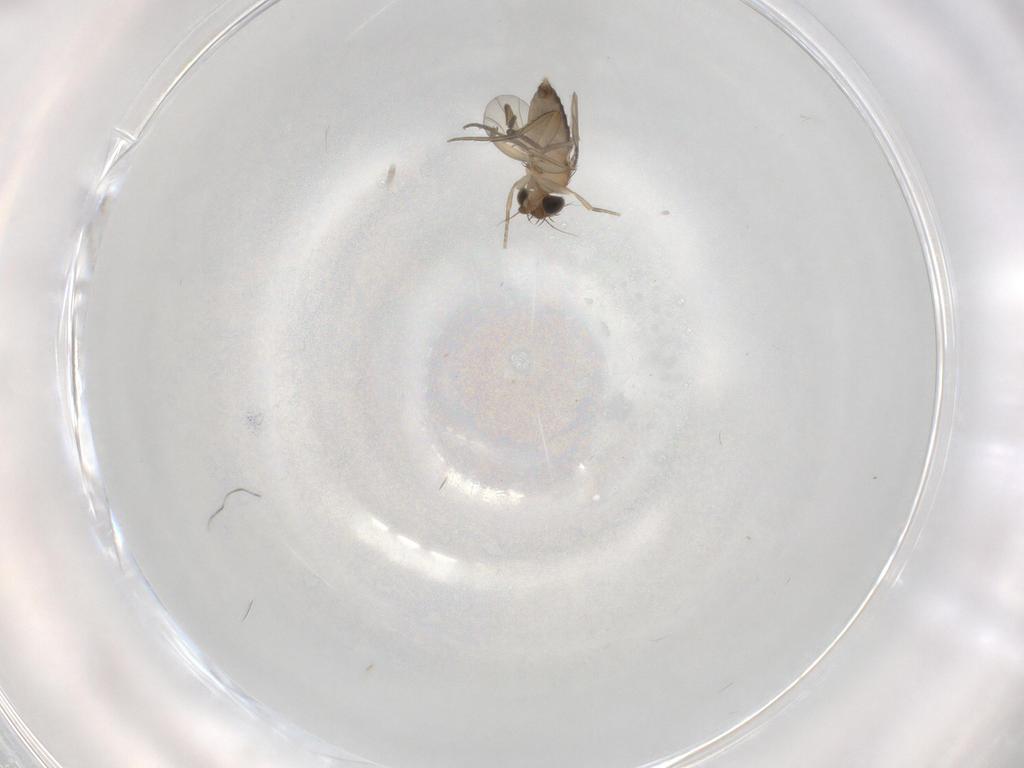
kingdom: Animalia
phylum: Arthropoda
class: Insecta
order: Diptera
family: Phoridae
